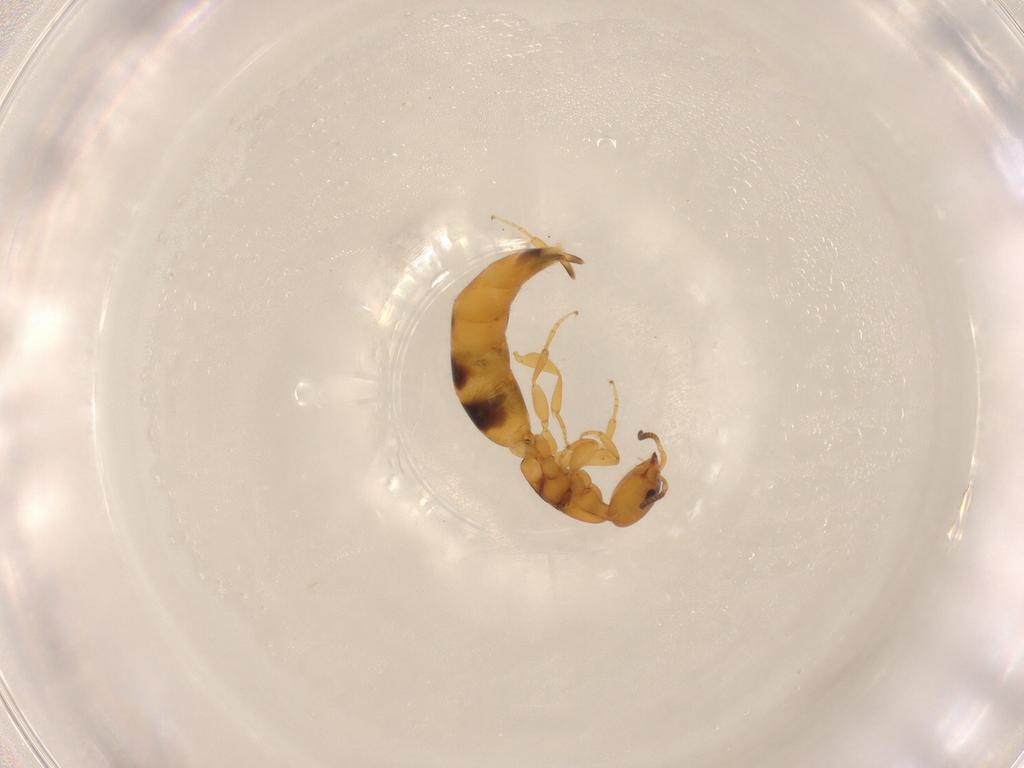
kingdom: Animalia
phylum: Arthropoda
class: Insecta
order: Hymenoptera
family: Bethylidae
